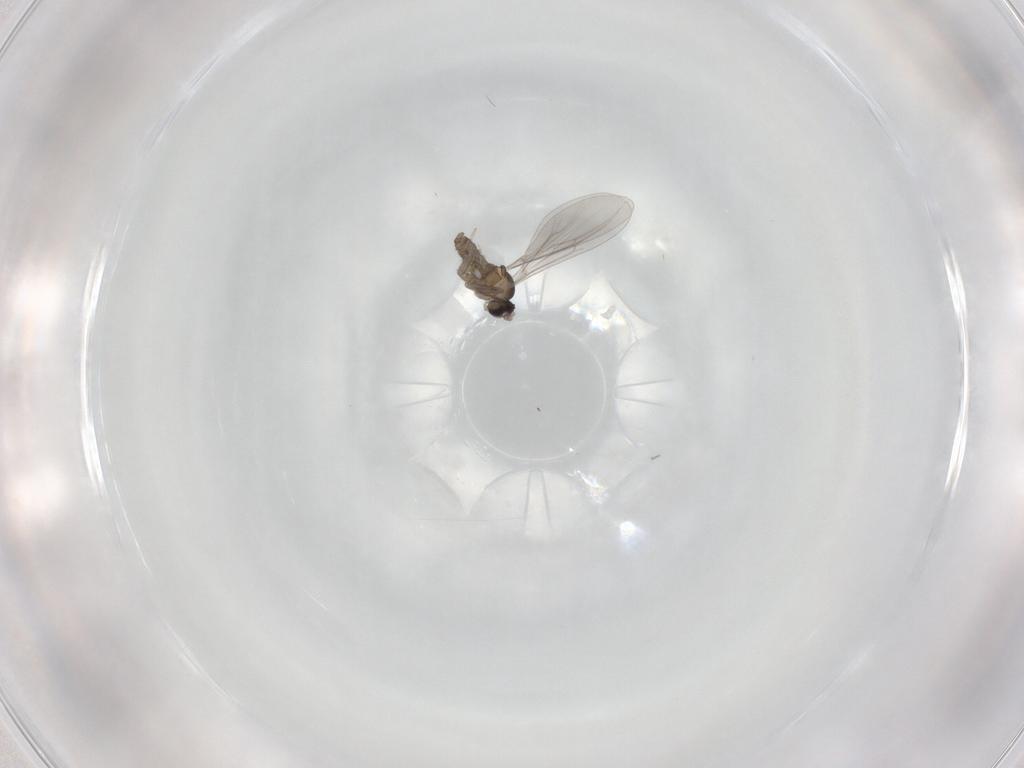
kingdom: Animalia
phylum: Arthropoda
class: Insecta
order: Diptera
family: Cecidomyiidae
